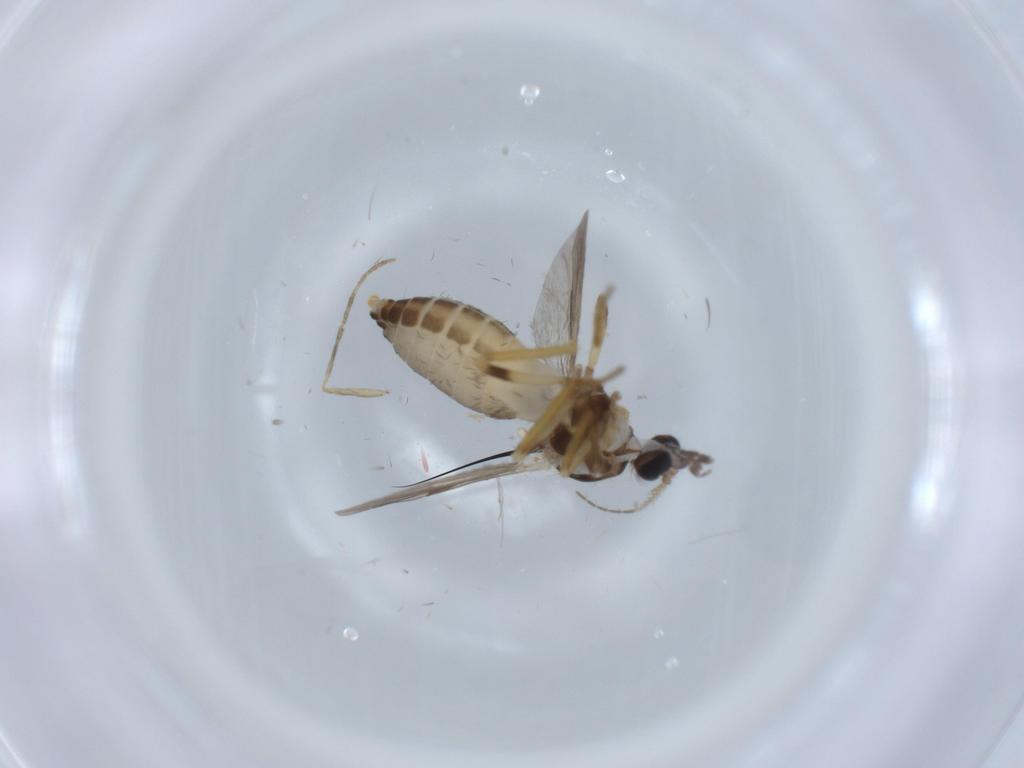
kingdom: Animalia
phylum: Arthropoda
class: Insecta
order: Diptera
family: Ceratopogonidae
